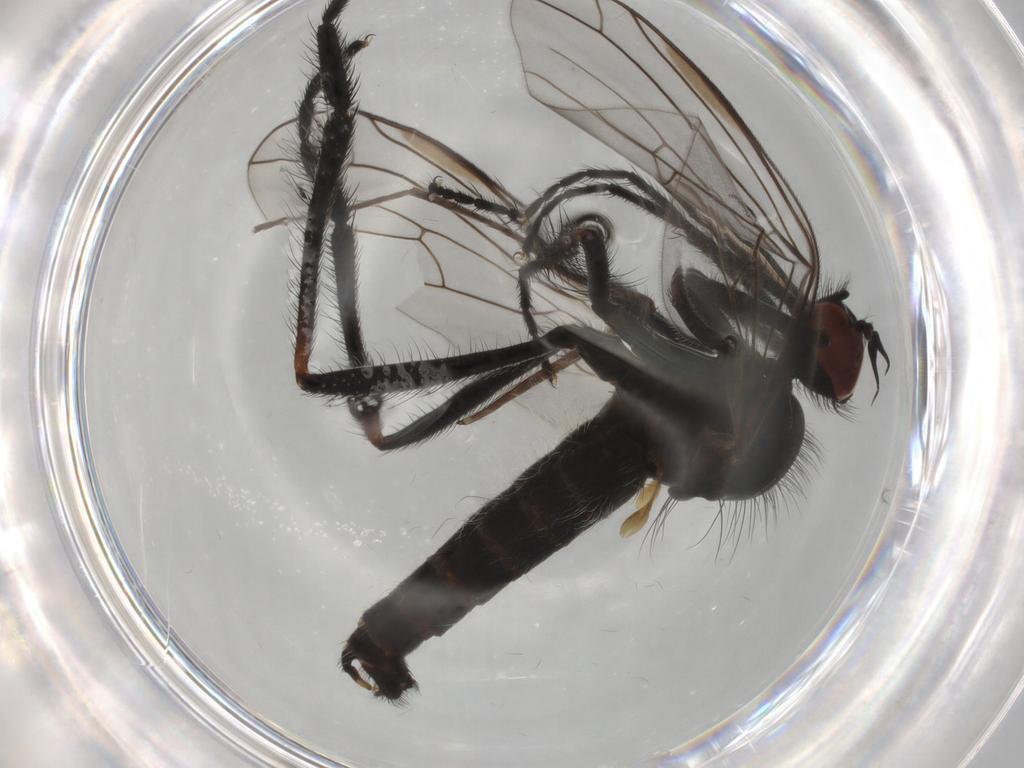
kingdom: Animalia
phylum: Arthropoda
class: Insecta
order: Diptera
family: Empididae
